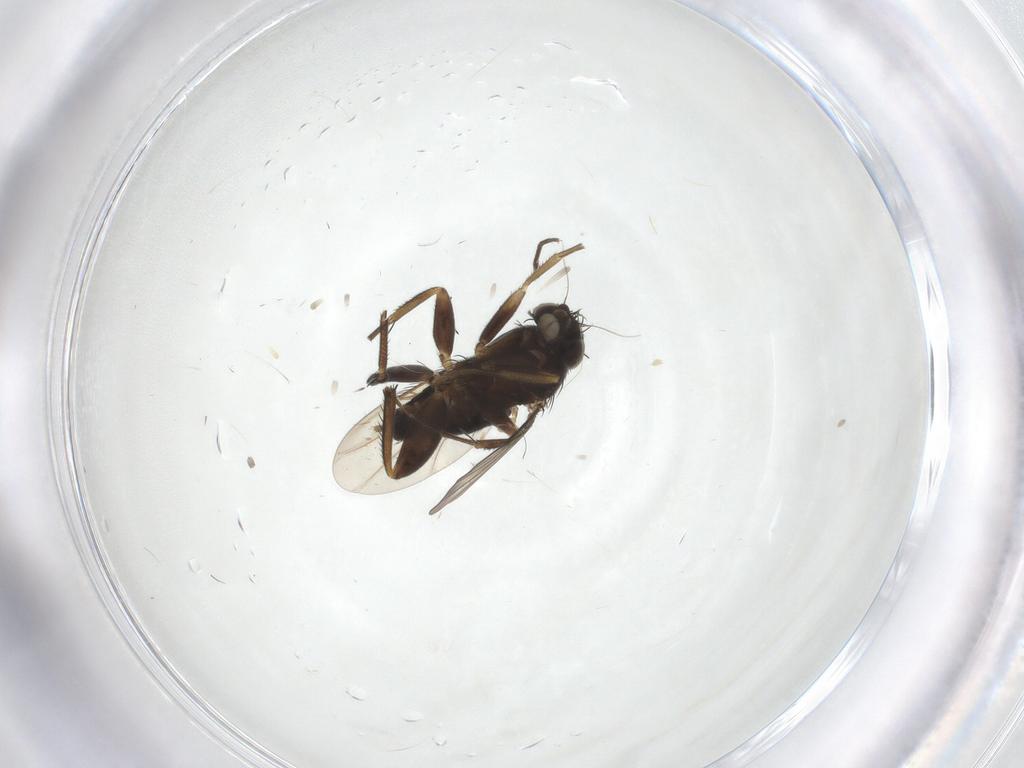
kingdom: Animalia
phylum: Arthropoda
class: Insecta
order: Diptera
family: Phoridae
